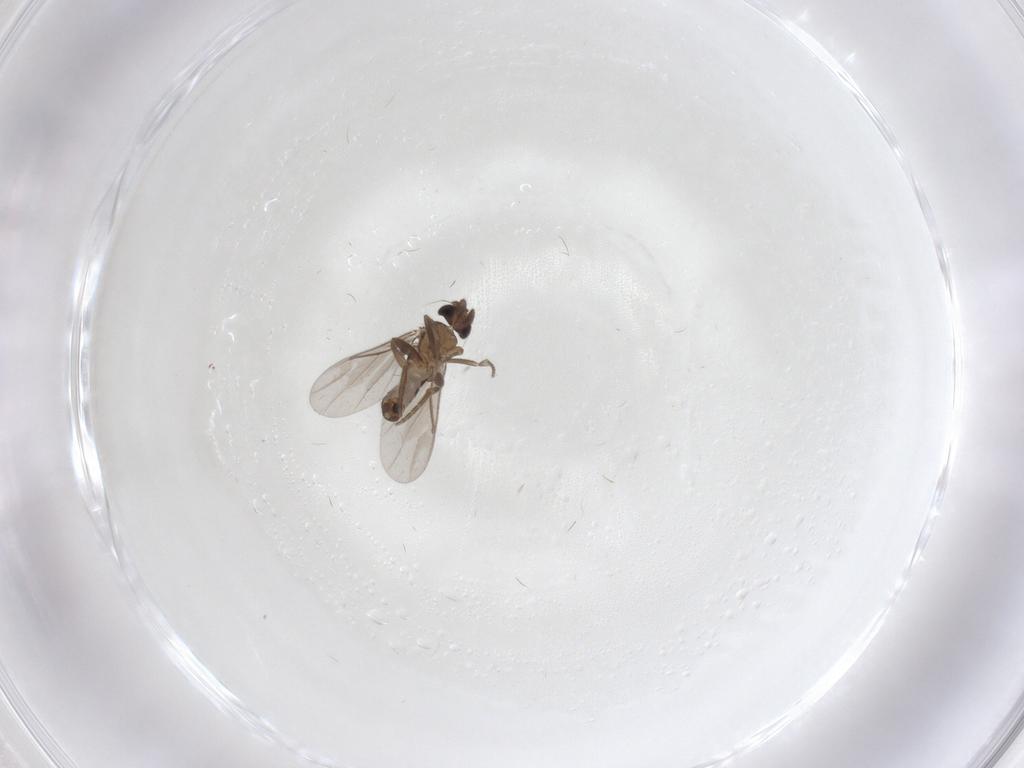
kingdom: Animalia
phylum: Arthropoda
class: Insecta
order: Diptera
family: Phoridae
